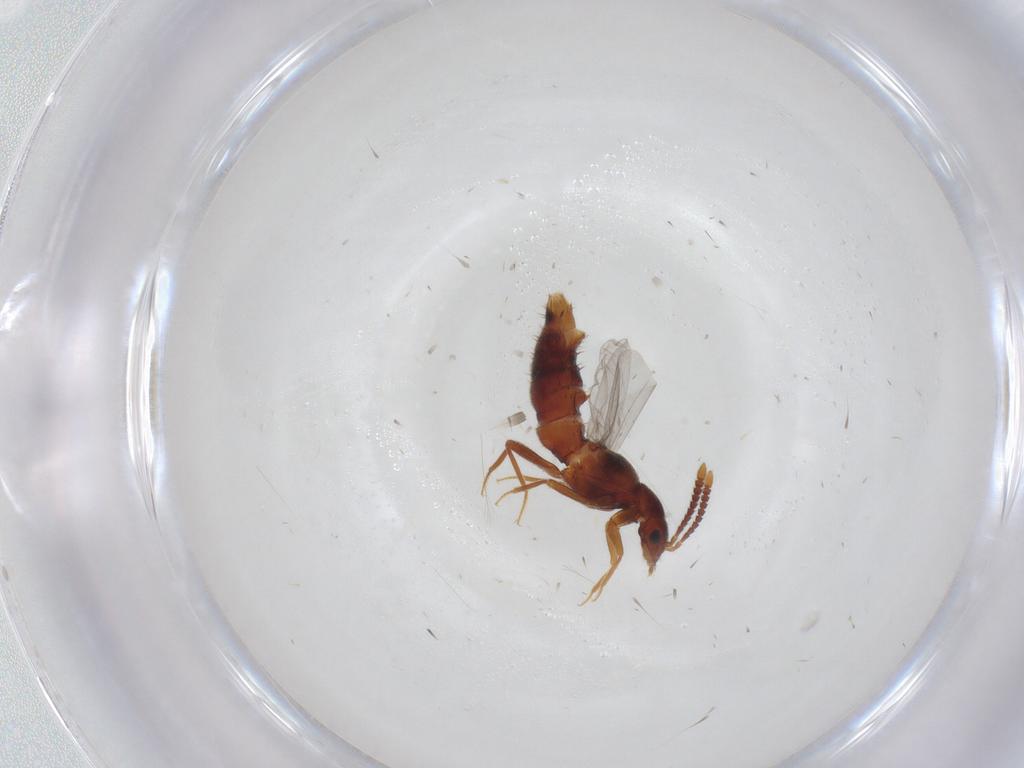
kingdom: Animalia
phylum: Arthropoda
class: Insecta
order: Coleoptera
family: Staphylinidae
